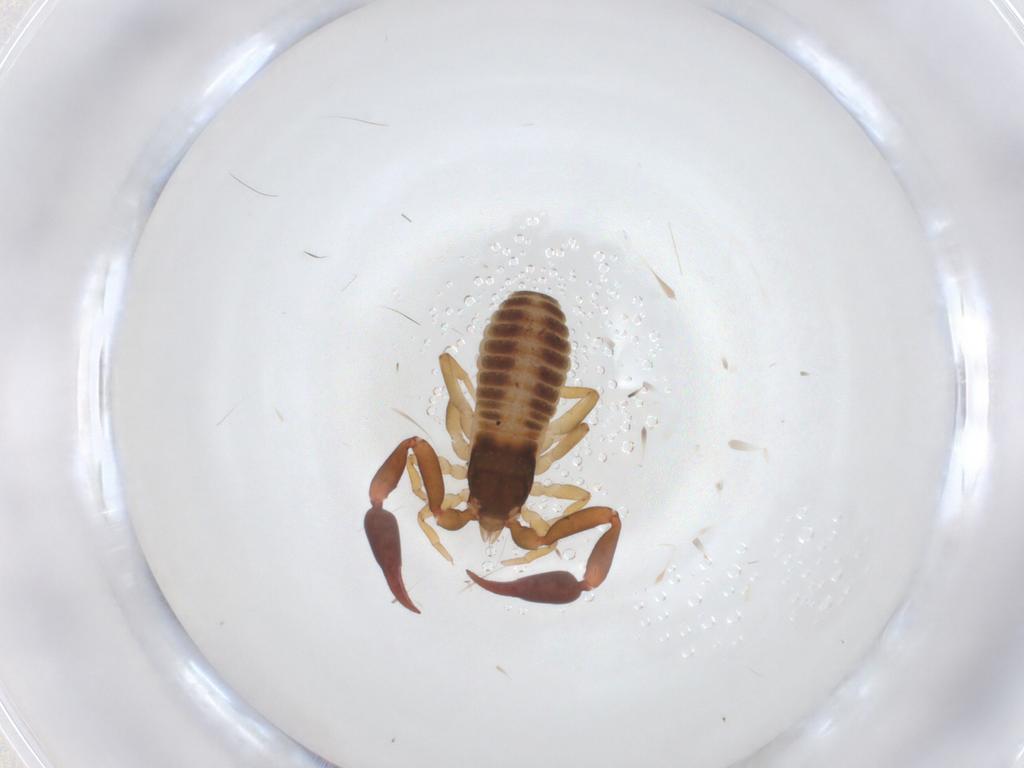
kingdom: Animalia
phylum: Arthropoda
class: Arachnida
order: Pseudoscorpiones
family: Withiidae
